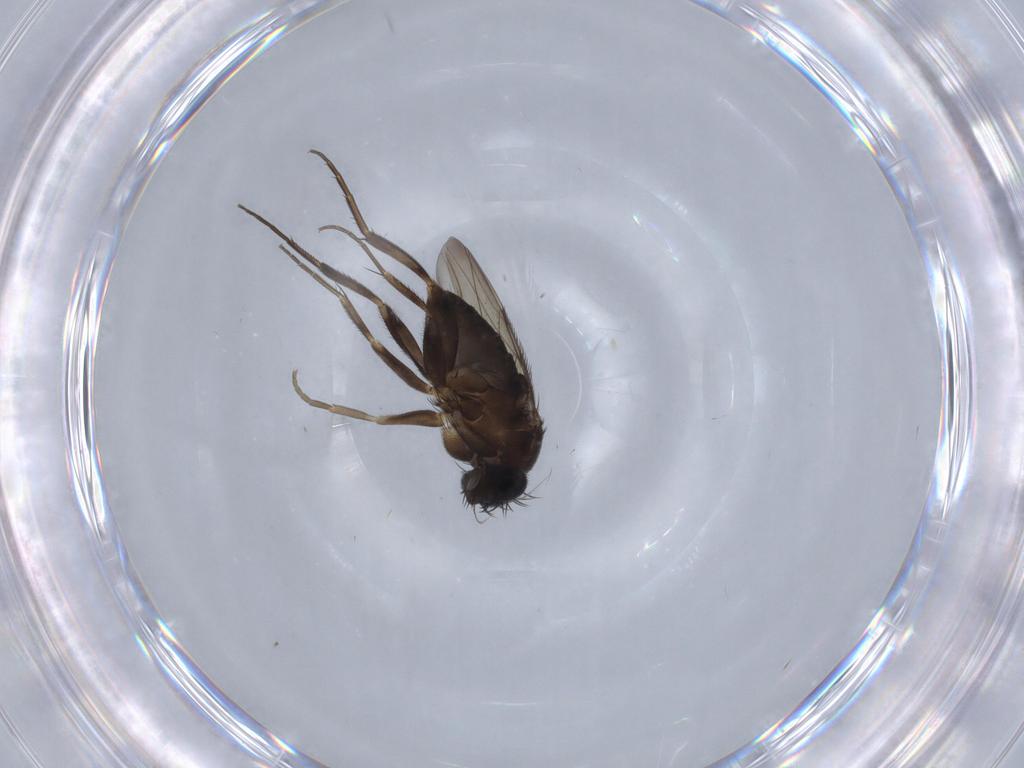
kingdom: Animalia
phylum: Arthropoda
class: Insecta
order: Diptera
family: Phoridae
